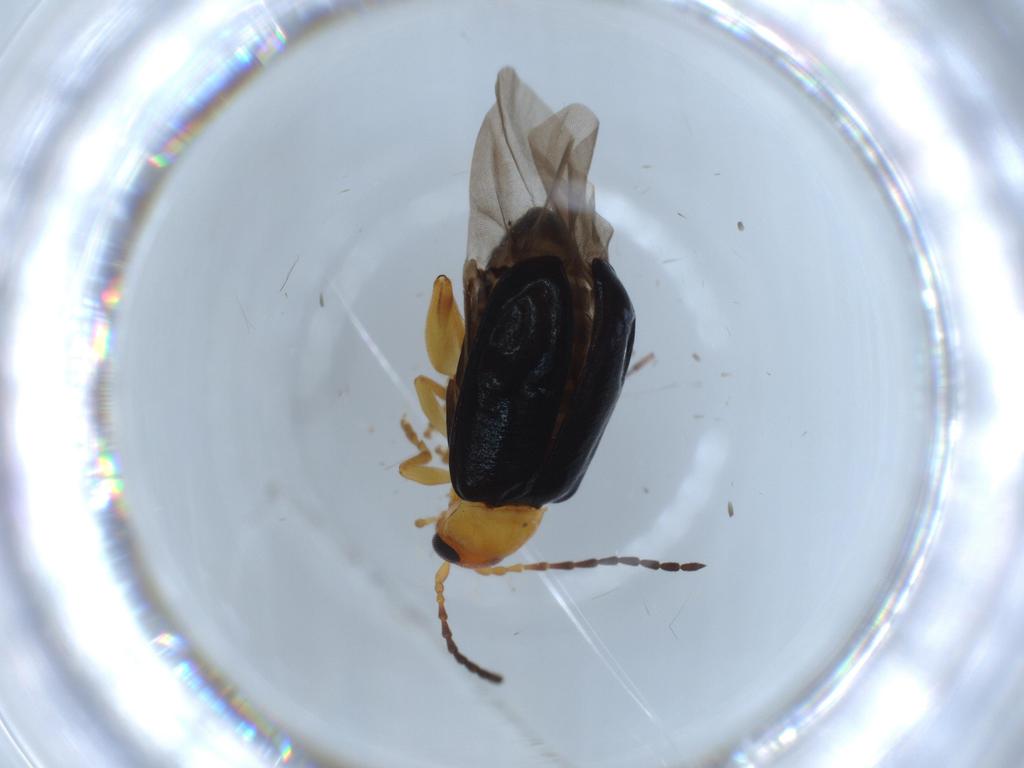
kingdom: Animalia
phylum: Arthropoda
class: Insecta
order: Coleoptera
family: Chrysomelidae
